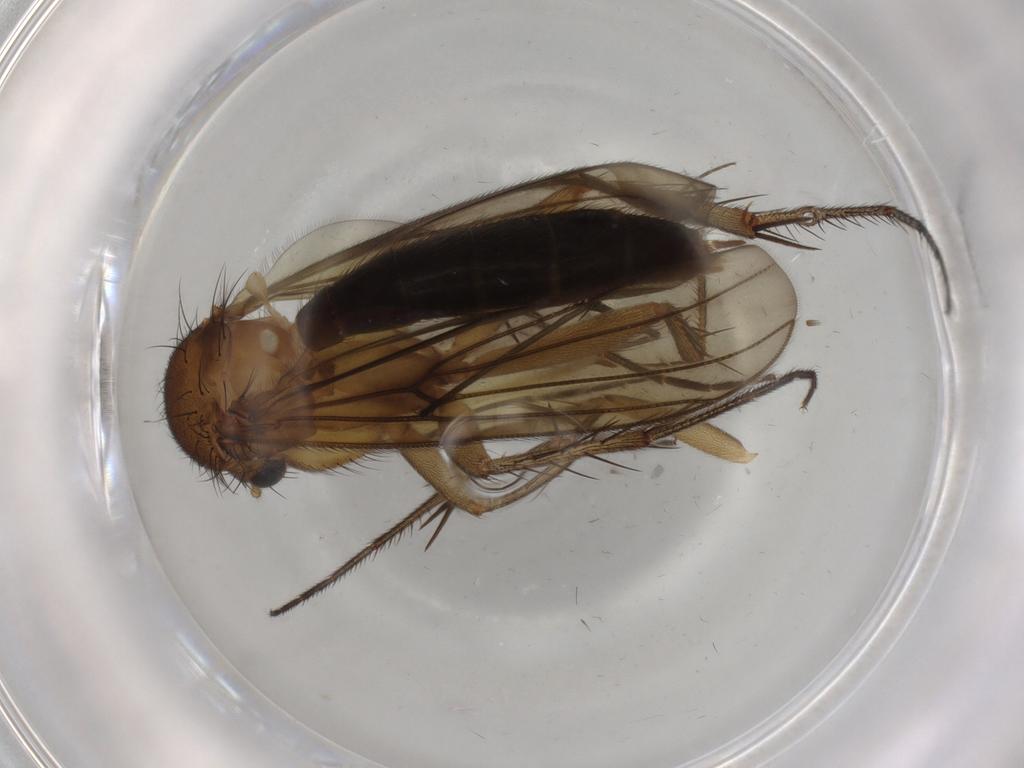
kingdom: Animalia
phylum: Arthropoda
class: Insecta
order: Diptera
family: Mycetophilidae
